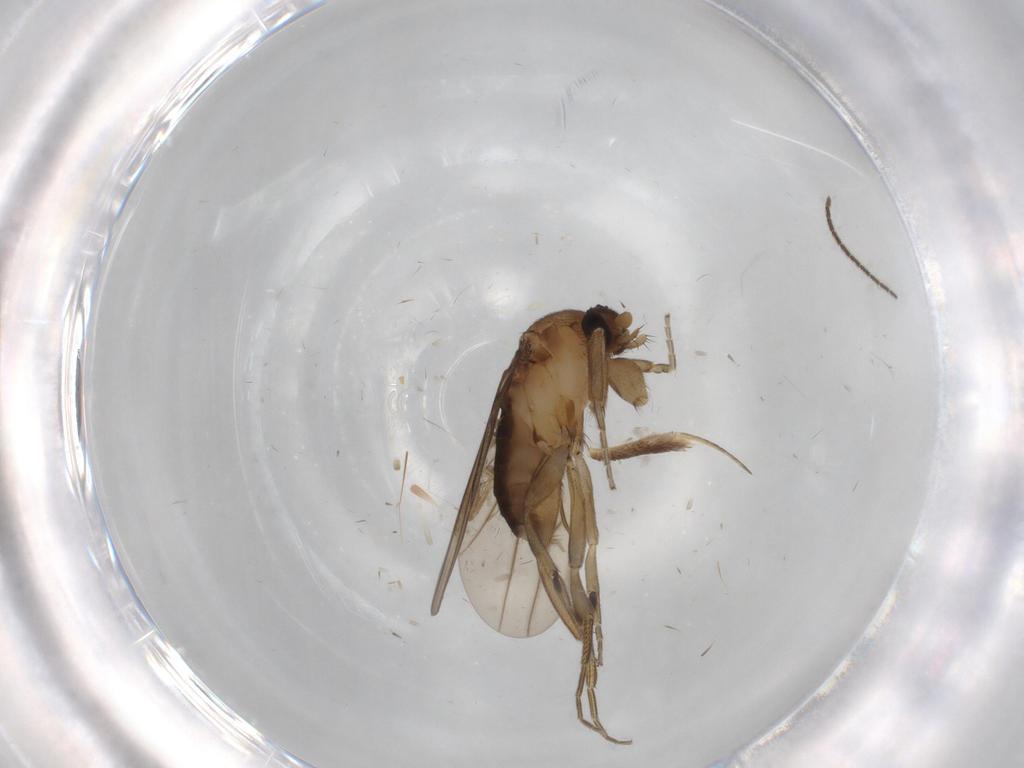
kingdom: Animalia
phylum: Arthropoda
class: Insecta
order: Diptera
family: Psychodidae
